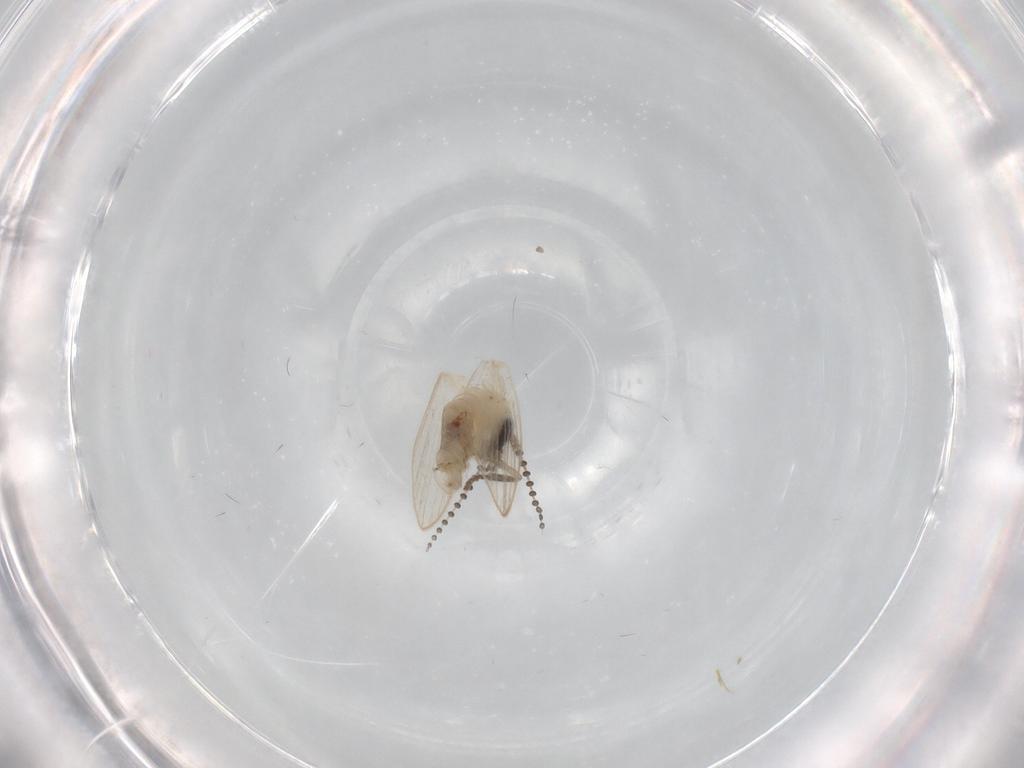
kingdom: Animalia
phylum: Arthropoda
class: Insecta
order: Diptera
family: Psychodidae
